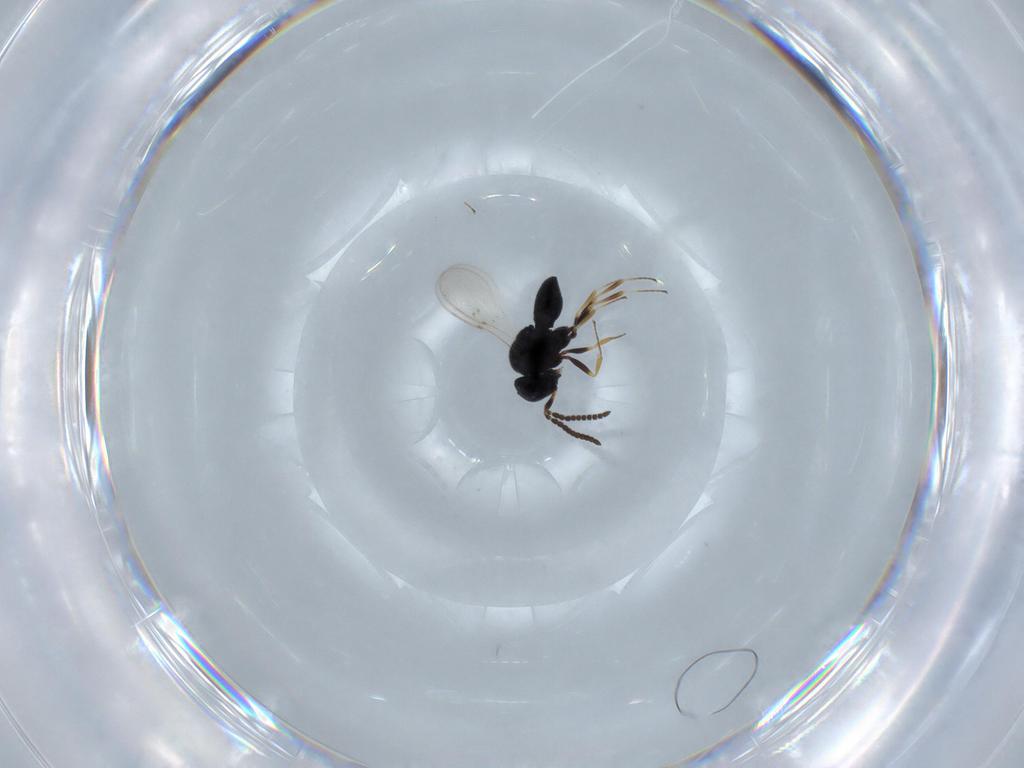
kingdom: Animalia
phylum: Arthropoda
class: Insecta
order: Hymenoptera
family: Scelionidae
